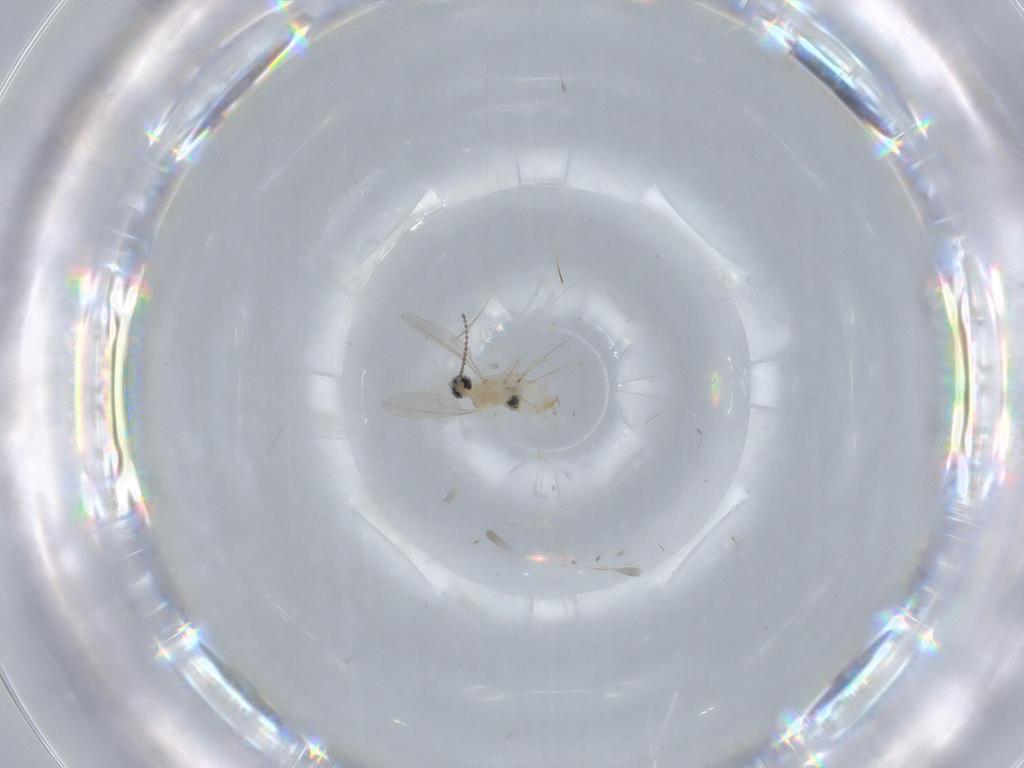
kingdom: Animalia
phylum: Arthropoda
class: Insecta
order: Diptera
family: Cecidomyiidae
